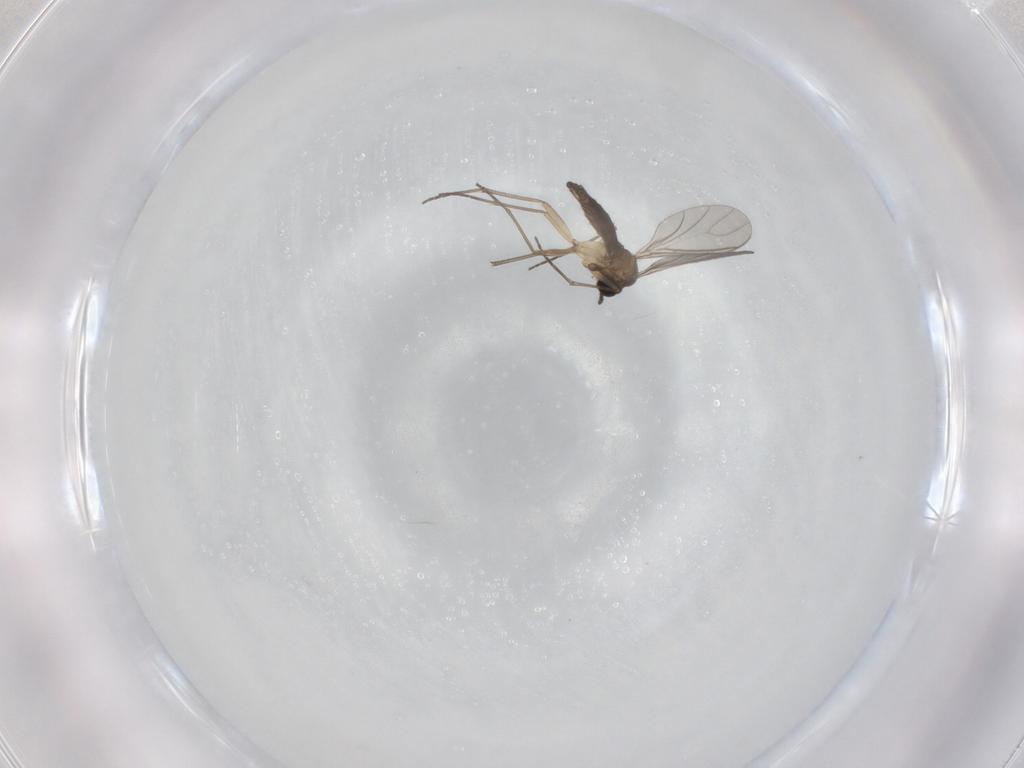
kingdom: Animalia
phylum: Arthropoda
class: Insecta
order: Diptera
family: Sciaridae
